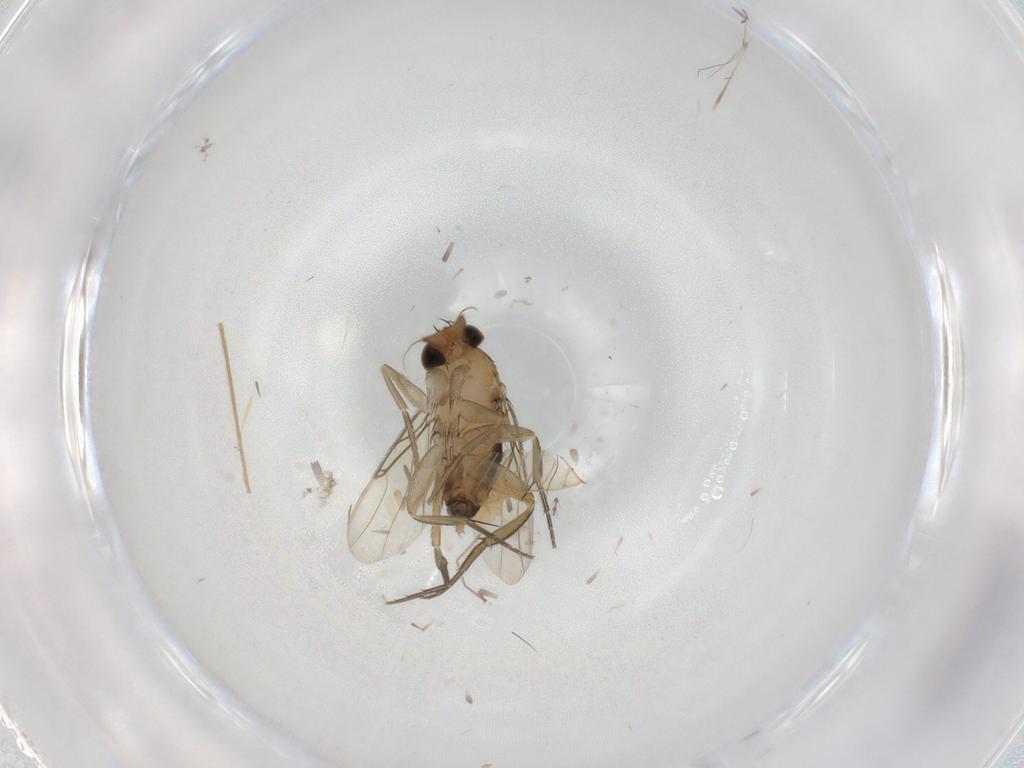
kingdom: Animalia
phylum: Arthropoda
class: Insecta
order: Diptera
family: Phoridae
